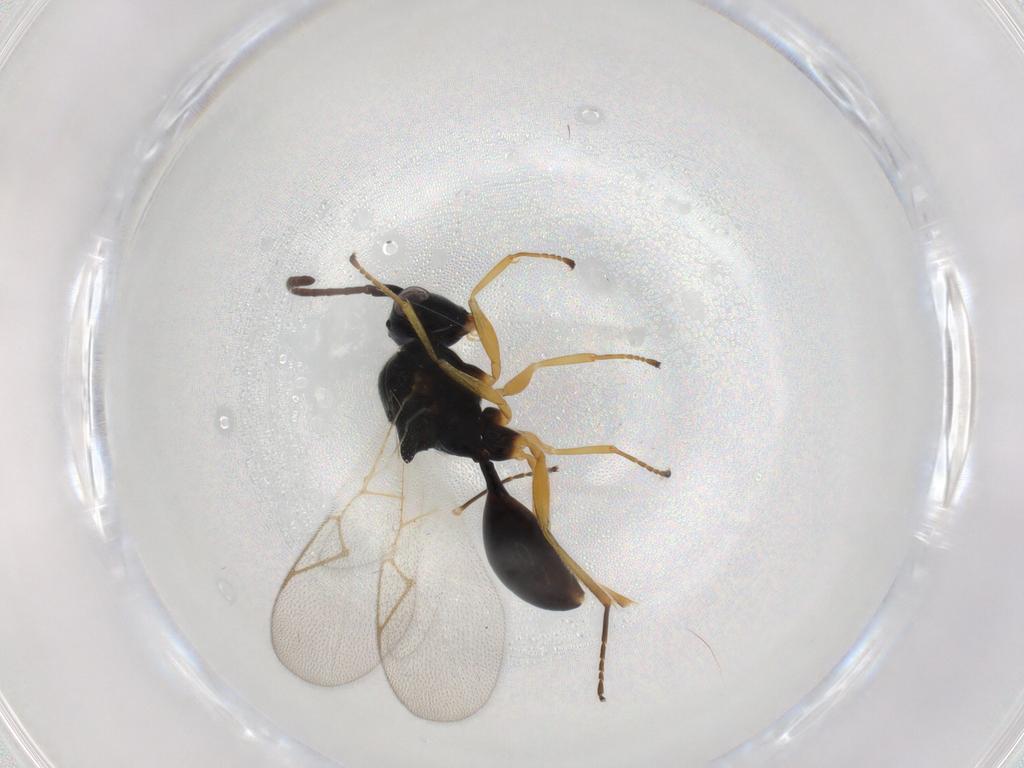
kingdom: Animalia
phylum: Arthropoda
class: Insecta
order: Hymenoptera
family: Figitidae
